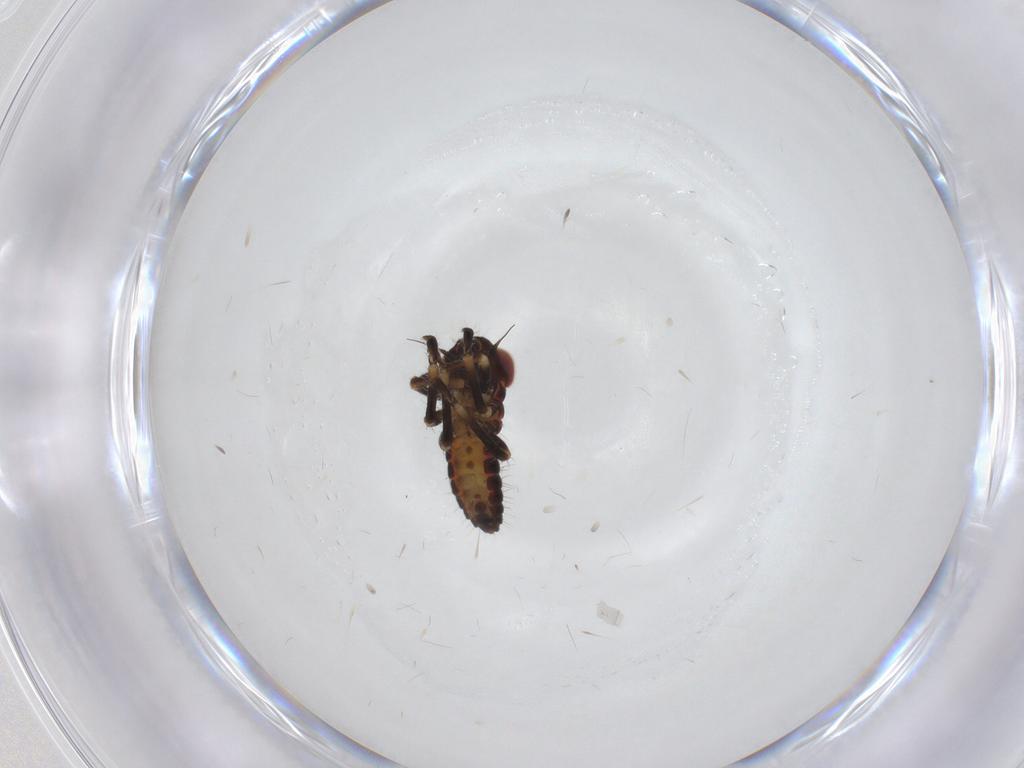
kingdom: Animalia
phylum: Arthropoda
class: Insecta
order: Hemiptera
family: Cicadellidae
